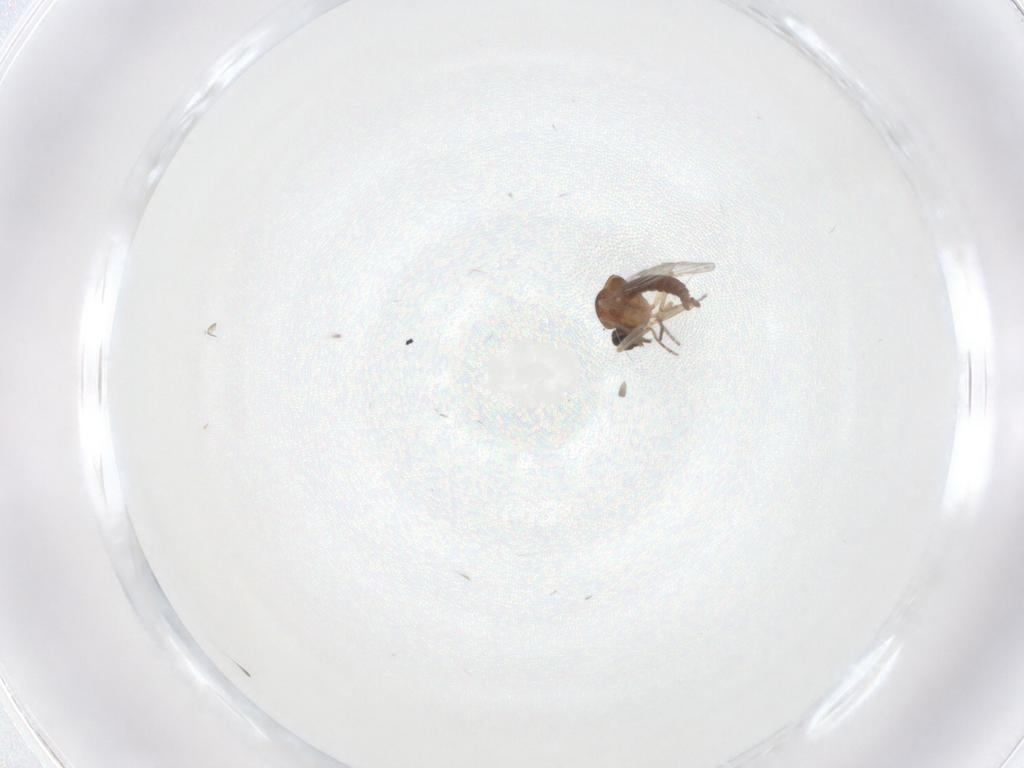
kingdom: Animalia
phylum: Arthropoda
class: Insecta
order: Diptera
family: Ceratopogonidae
